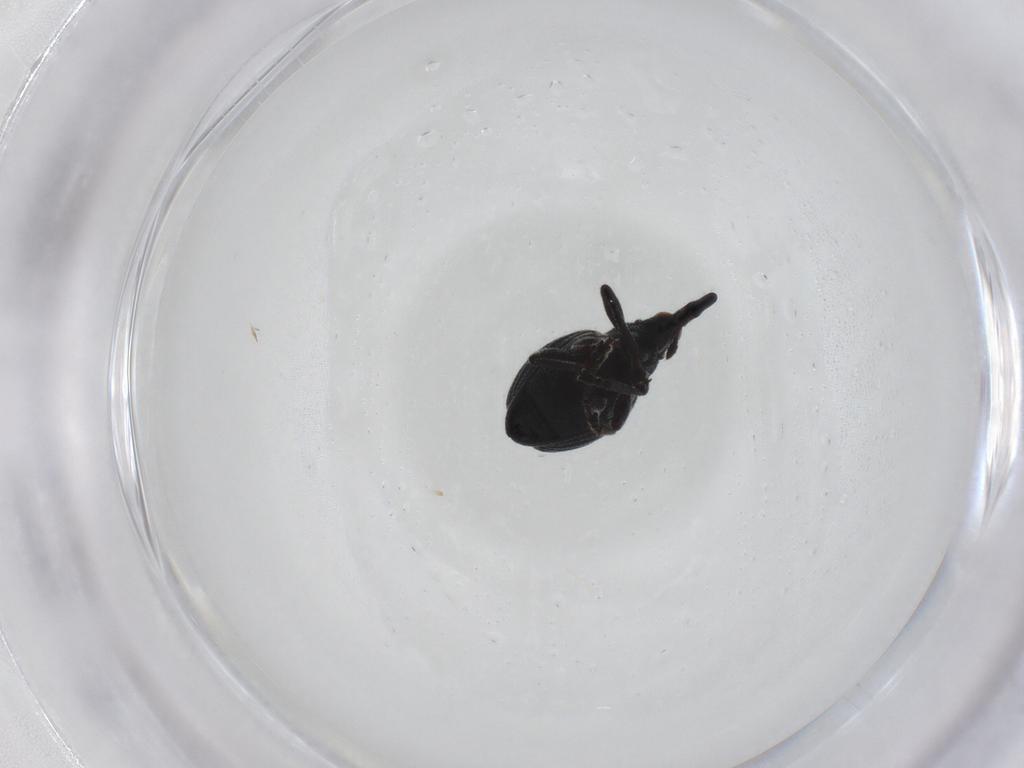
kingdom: Animalia
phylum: Arthropoda
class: Insecta
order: Coleoptera
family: Brentidae
